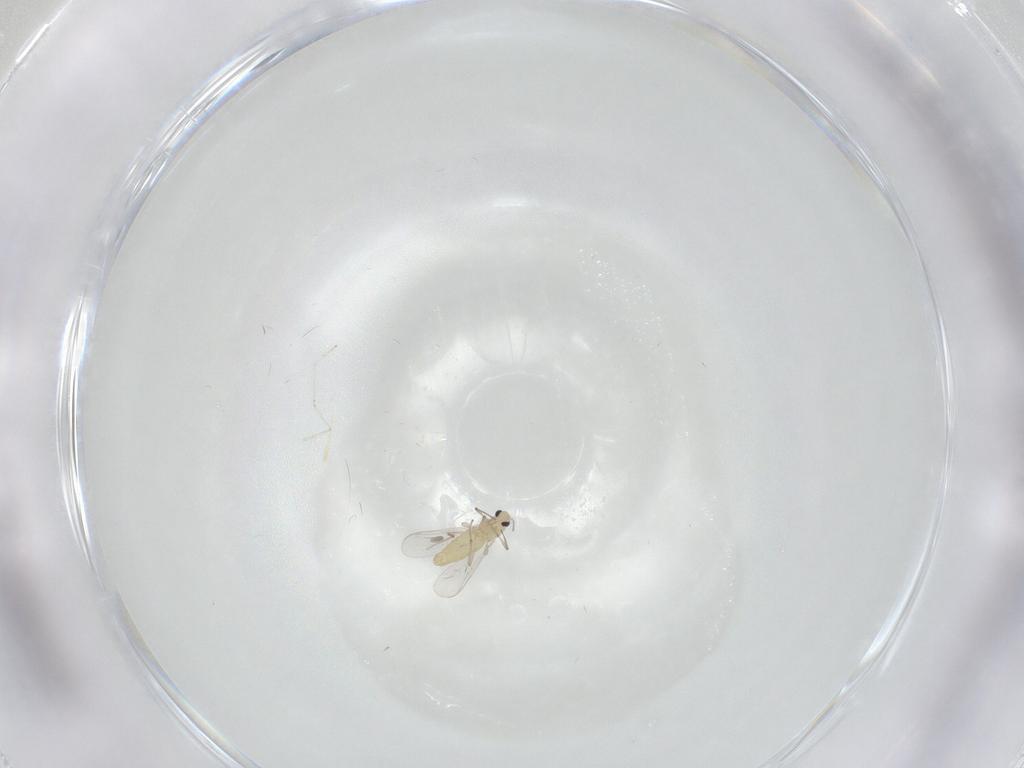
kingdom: Animalia
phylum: Arthropoda
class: Insecta
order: Diptera
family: Chironomidae
